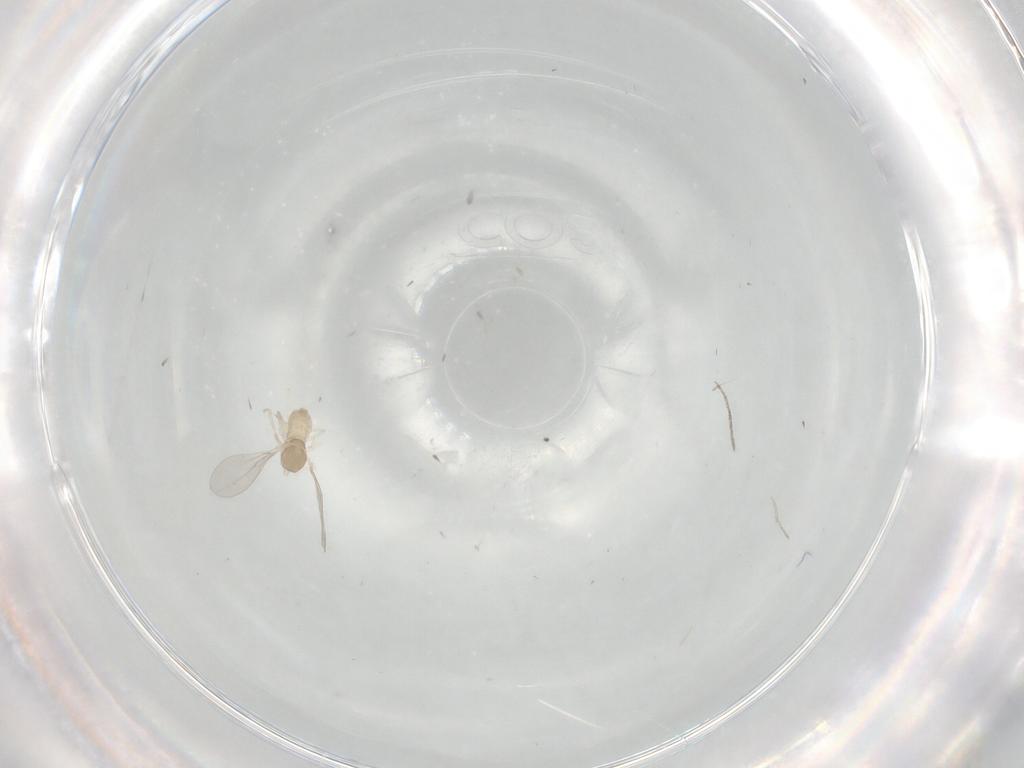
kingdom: Animalia
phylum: Arthropoda
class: Insecta
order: Diptera
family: Cecidomyiidae
